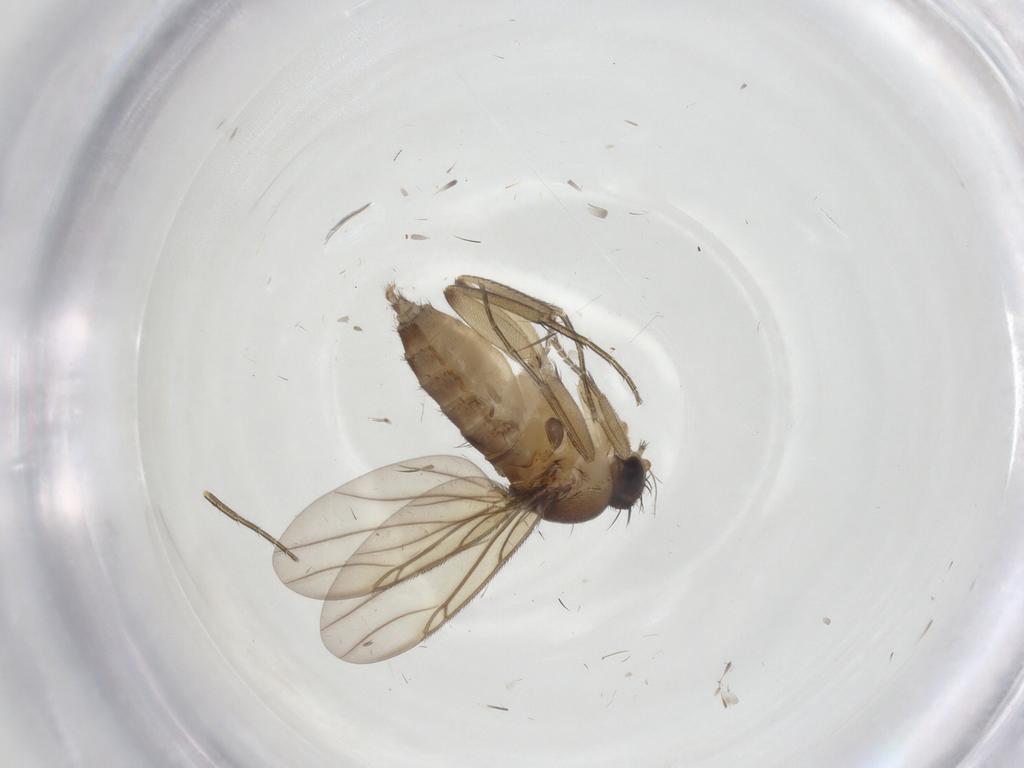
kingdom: Animalia
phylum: Arthropoda
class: Insecta
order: Diptera
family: Phoridae
